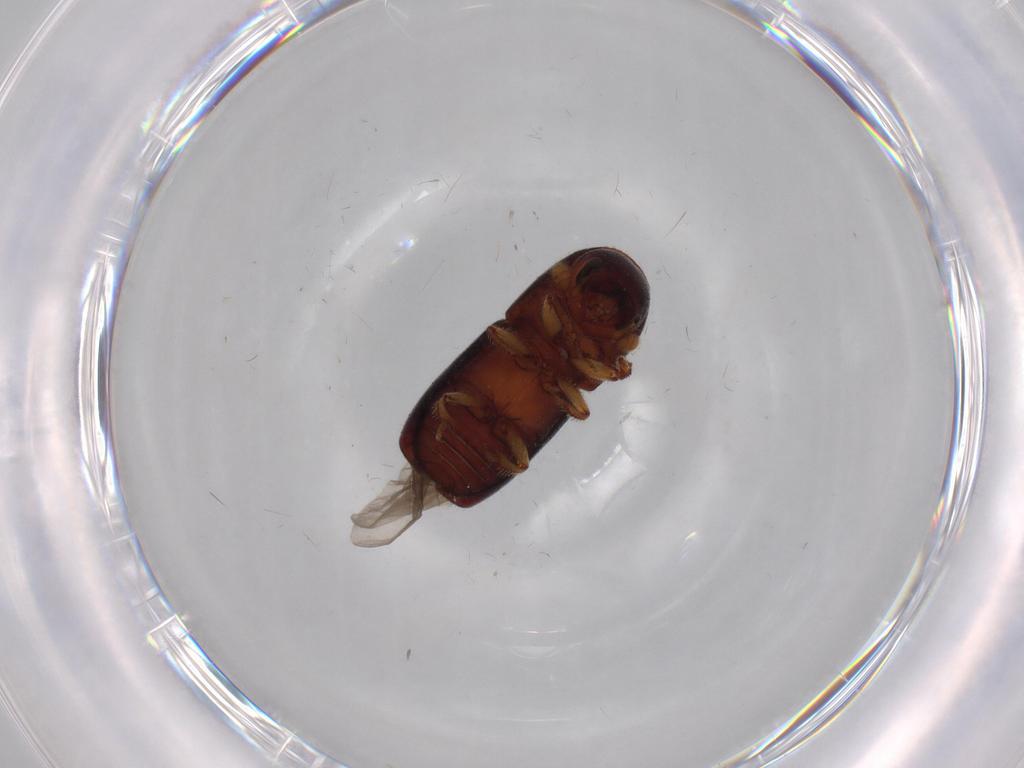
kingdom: Animalia
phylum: Arthropoda
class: Insecta
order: Coleoptera
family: Curculionidae
